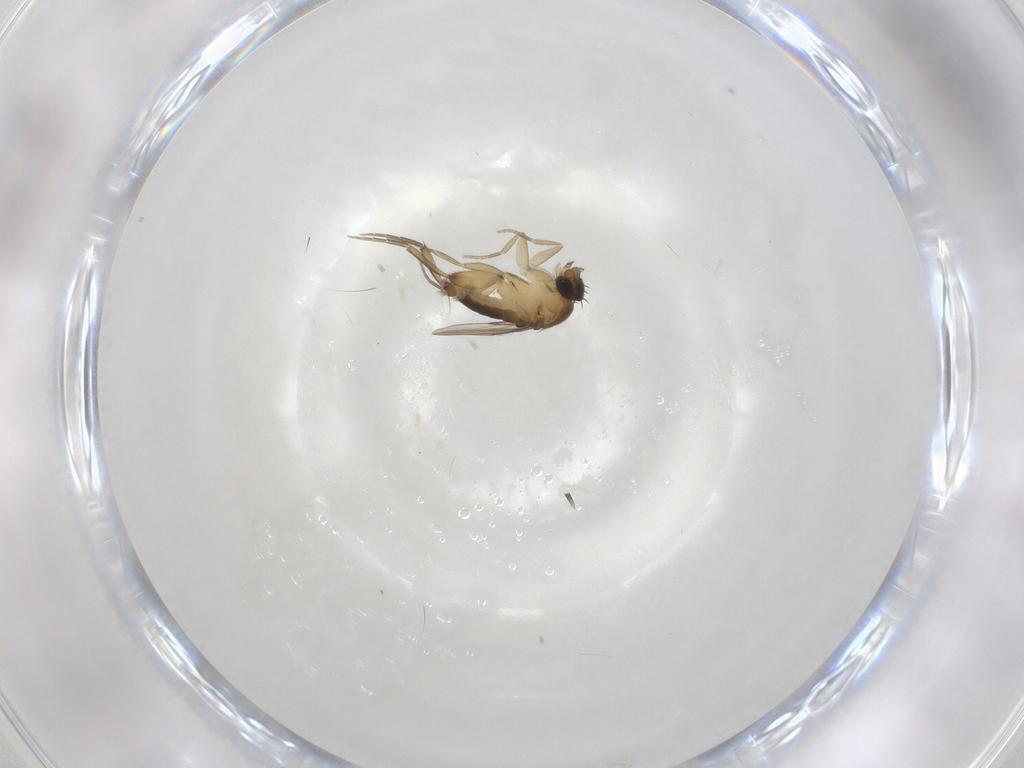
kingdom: Animalia
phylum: Arthropoda
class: Insecta
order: Diptera
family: Phoridae
